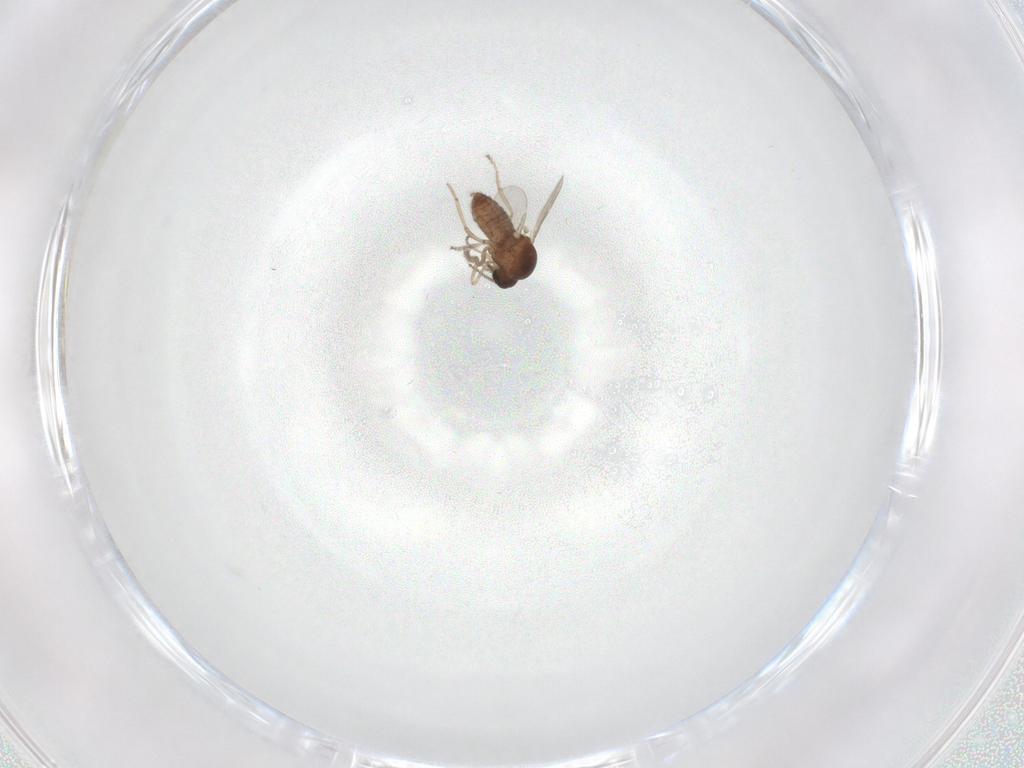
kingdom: Animalia
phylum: Arthropoda
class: Insecta
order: Diptera
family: Ceratopogonidae
